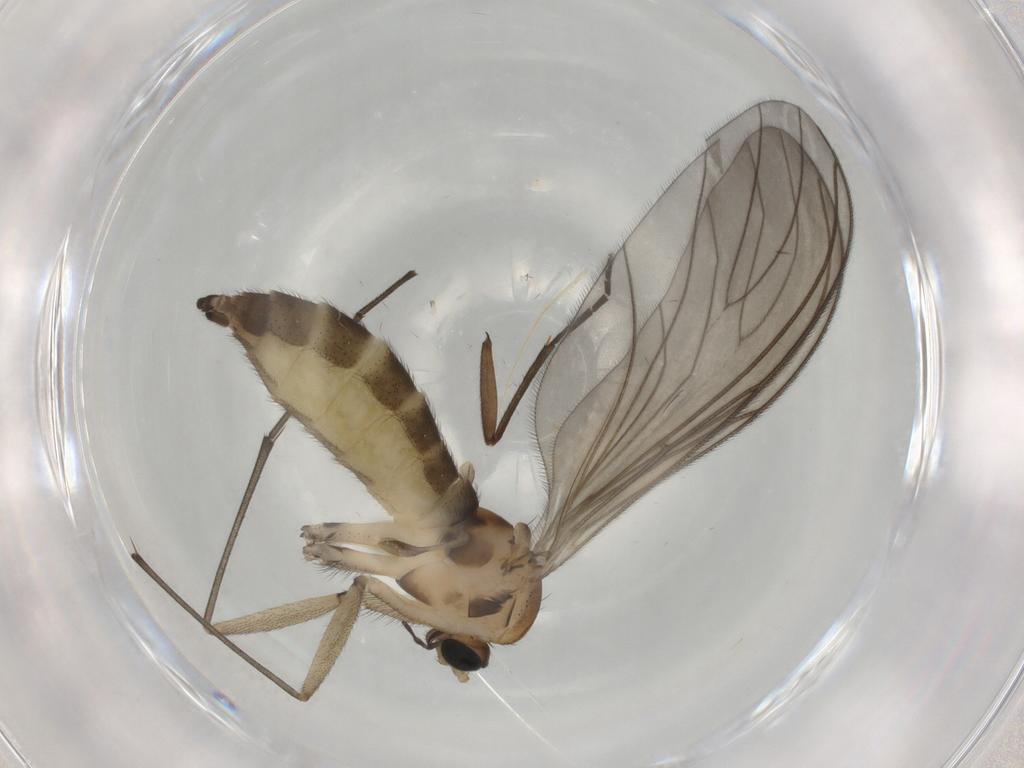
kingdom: Animalia
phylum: Arthropoda
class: Insecta
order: Diptera
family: Sciaridae
